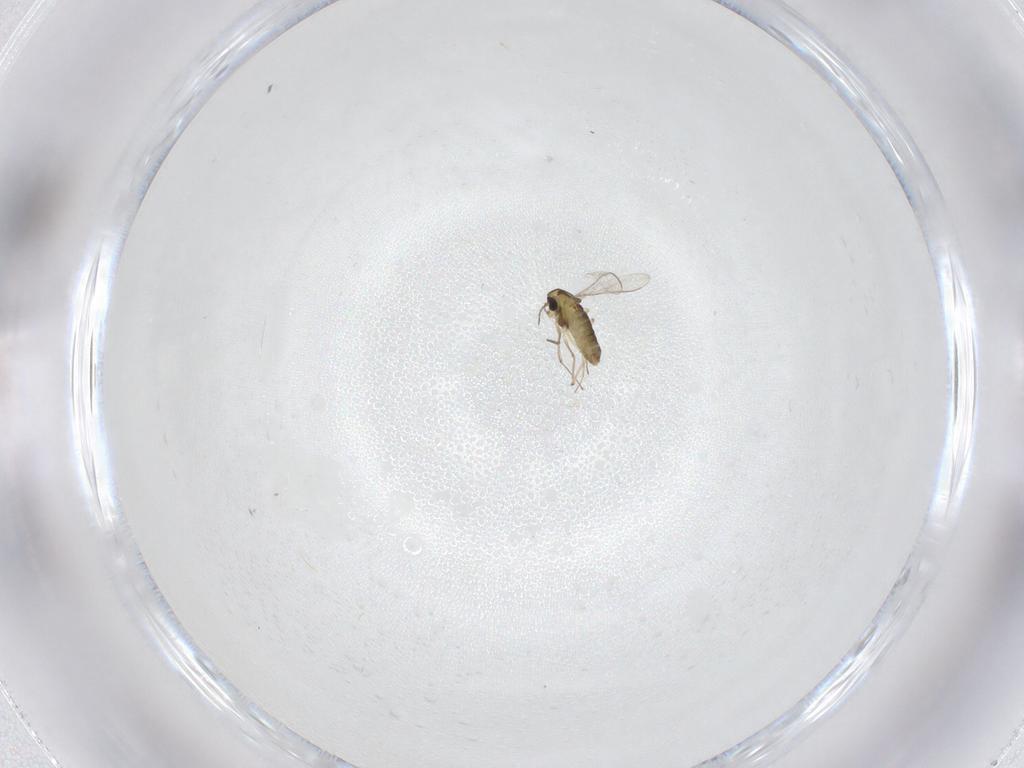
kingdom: Animalia
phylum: Arthropoda
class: Insecta
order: Diptera
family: Chironomidae
